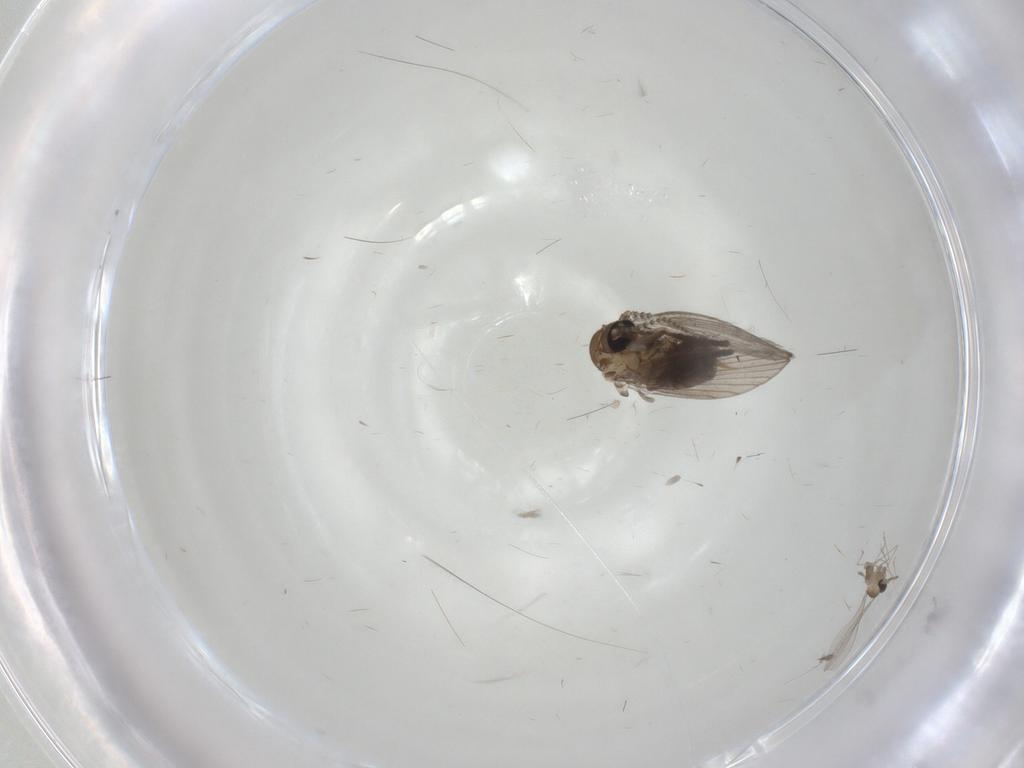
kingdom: Animalia
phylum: Arthropoda
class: Insecta
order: Diptera
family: Cecidomyiidae
